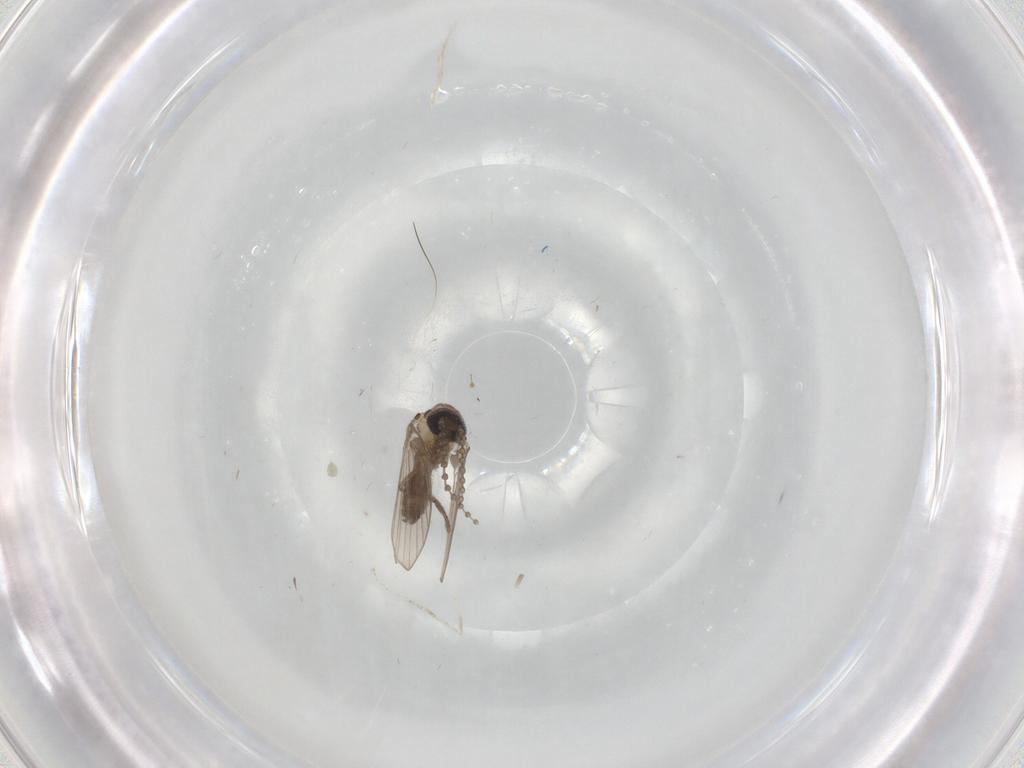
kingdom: Animalia
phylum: Arthropoda
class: Insecta
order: Diptera
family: Psychodidae
